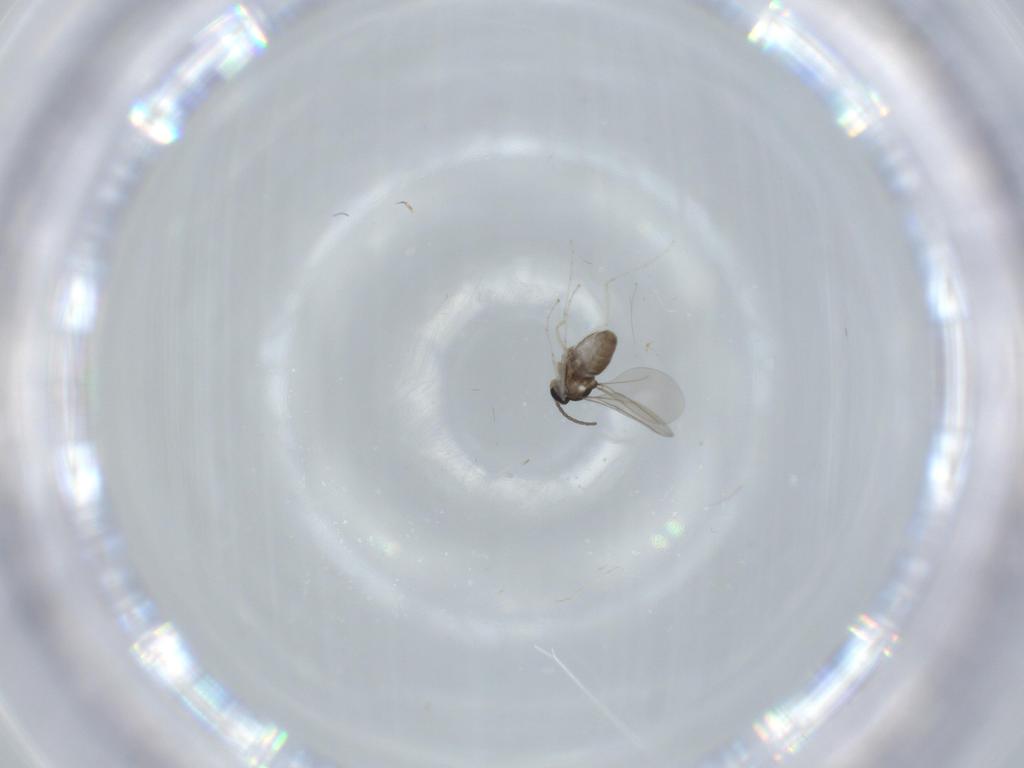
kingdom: Animalia
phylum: Arthropoda
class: Insecta
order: Diptera
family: Cecidomyiidae
